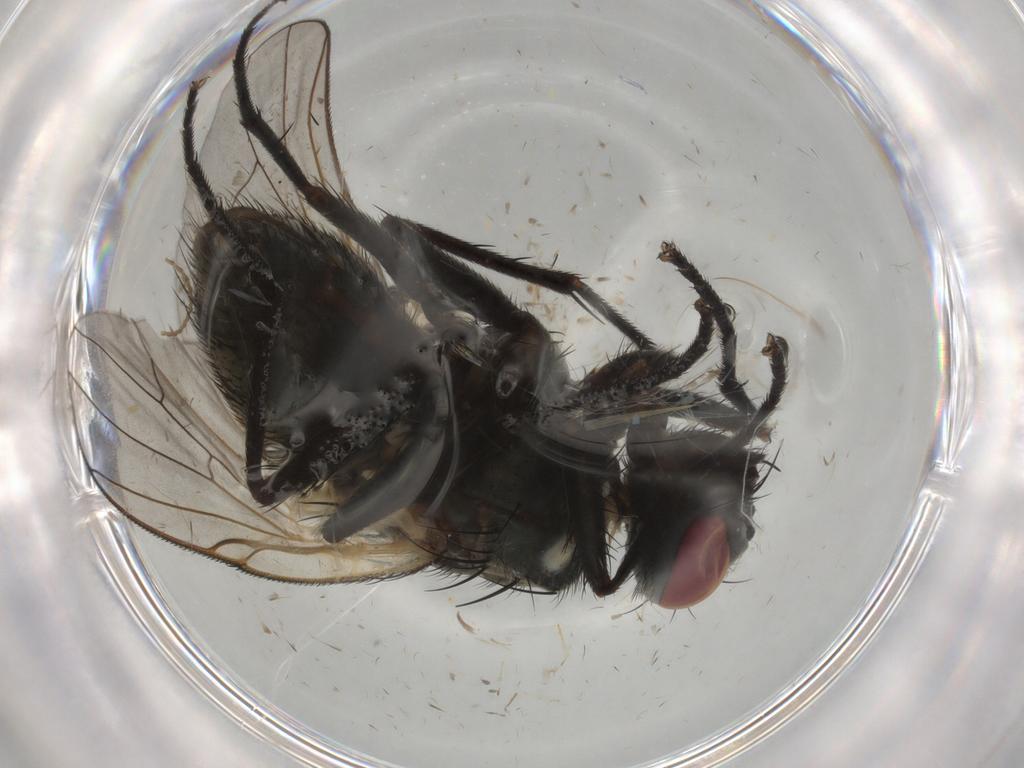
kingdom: Animalia
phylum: Arthropoda
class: Insecta
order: Diptera
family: Muscidae
